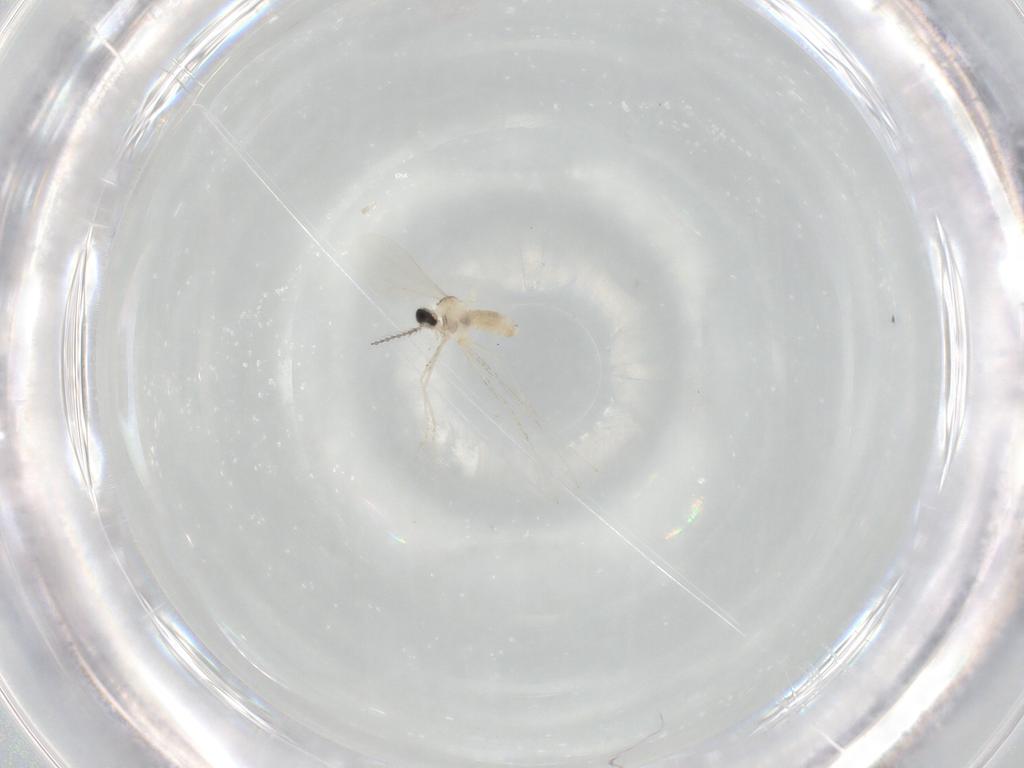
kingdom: Animalia
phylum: Arthropoda
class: Insecta
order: Diptera
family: Cecidomyiidae
